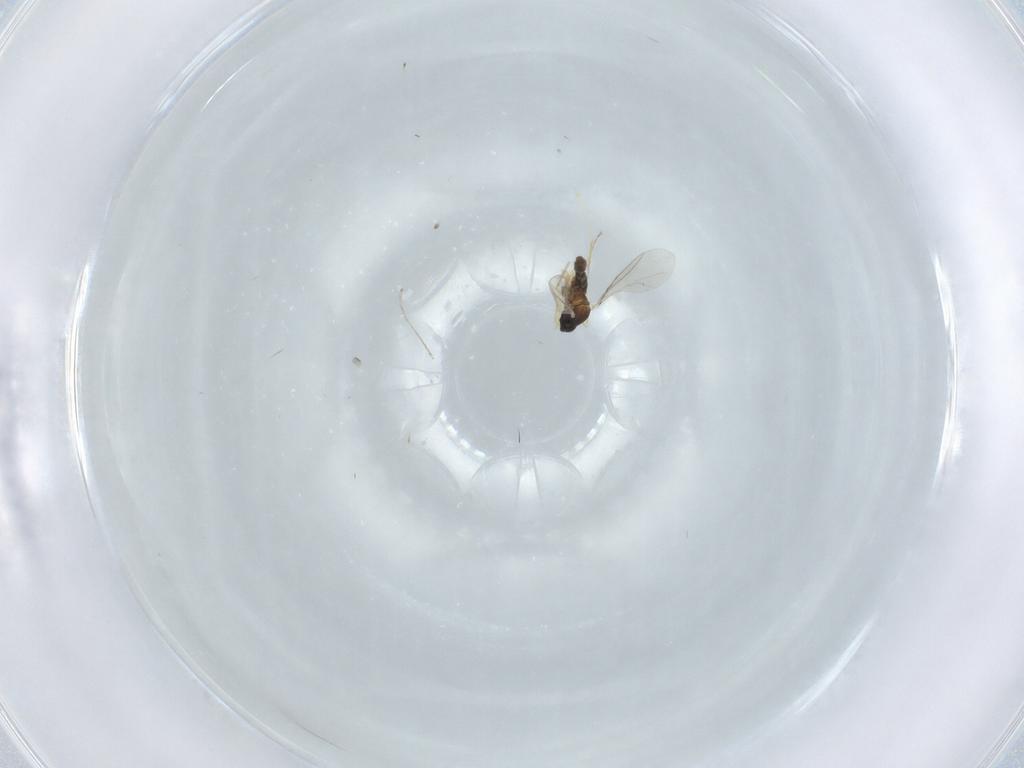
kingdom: Animalia
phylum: Arthropoda
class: Insecta
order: Diptera
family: Cecidomyiidae
